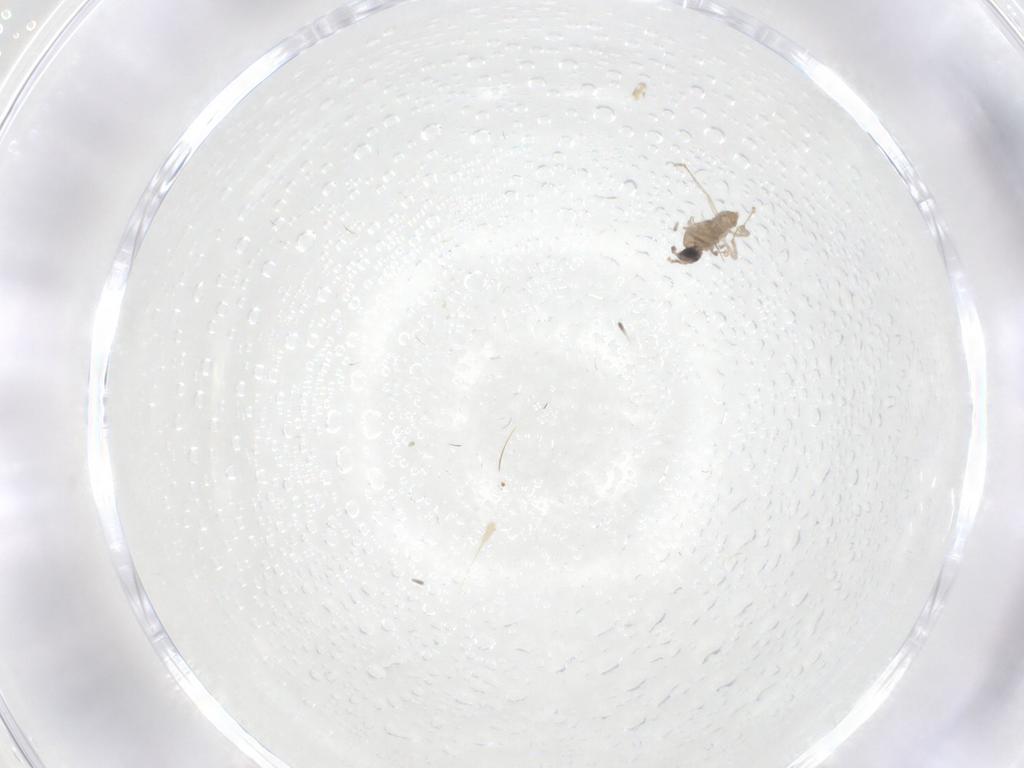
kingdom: Animalia
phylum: Arthropoda
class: Insecta
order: Diptera
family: Cecidomyiidae
